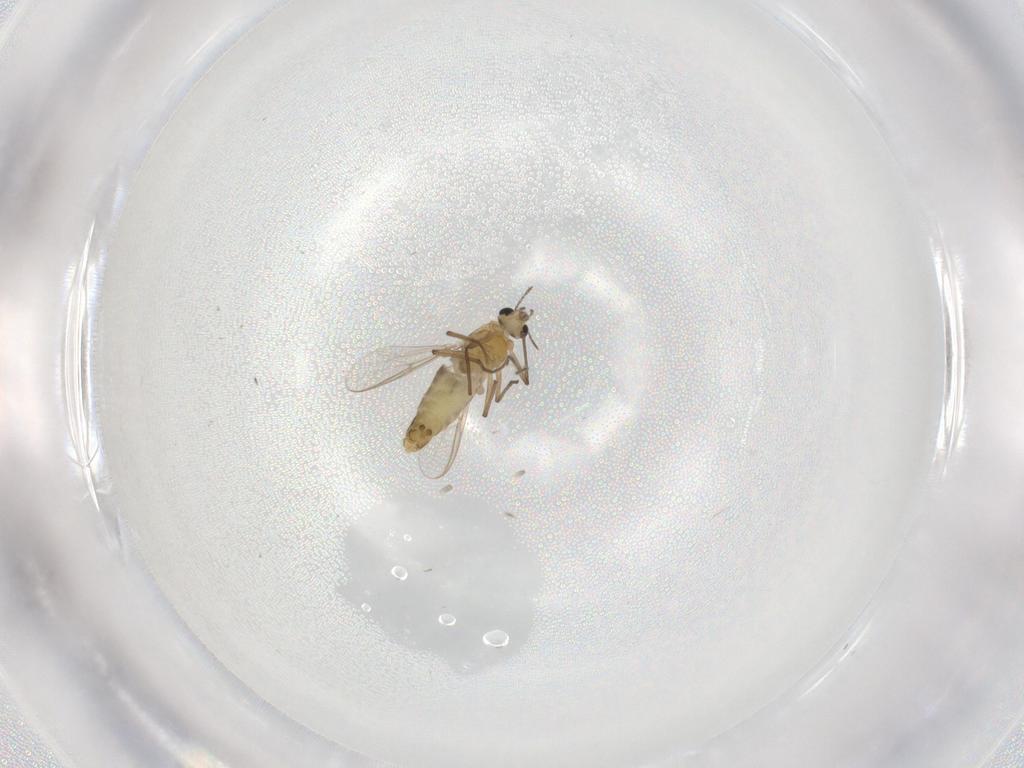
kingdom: Animalia
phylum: Arthropoda
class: Insecta
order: Diptera
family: Chironomidae
